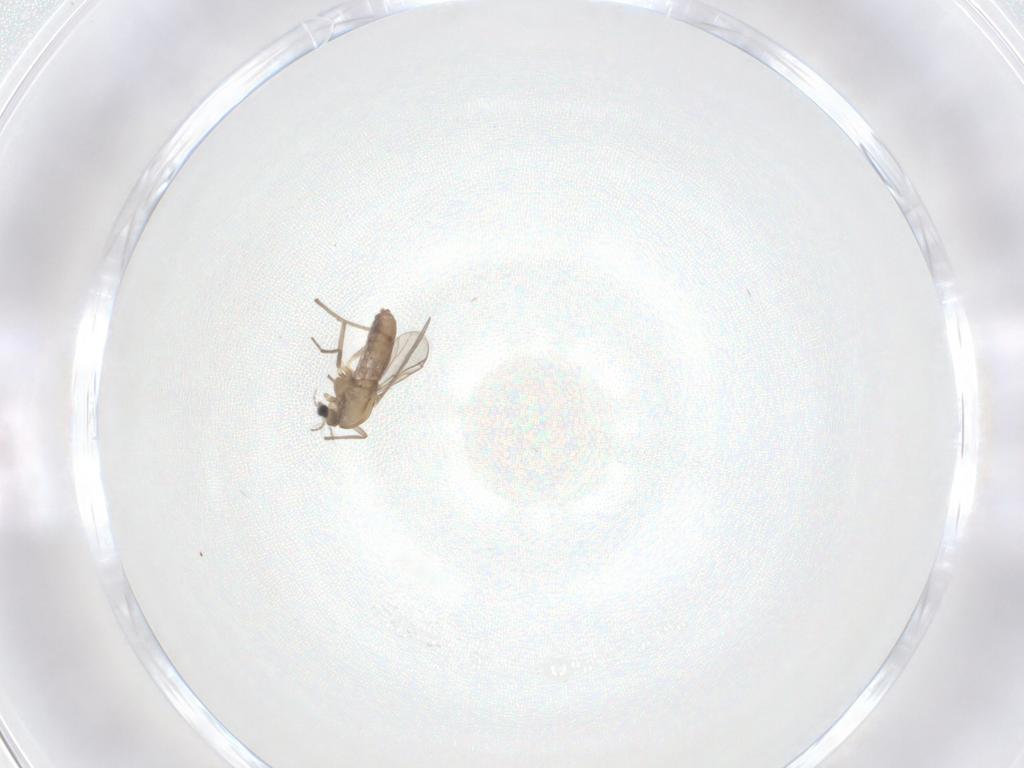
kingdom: Animalia
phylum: Arthropoda
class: Insecta
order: Diptera
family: Chironomidae
